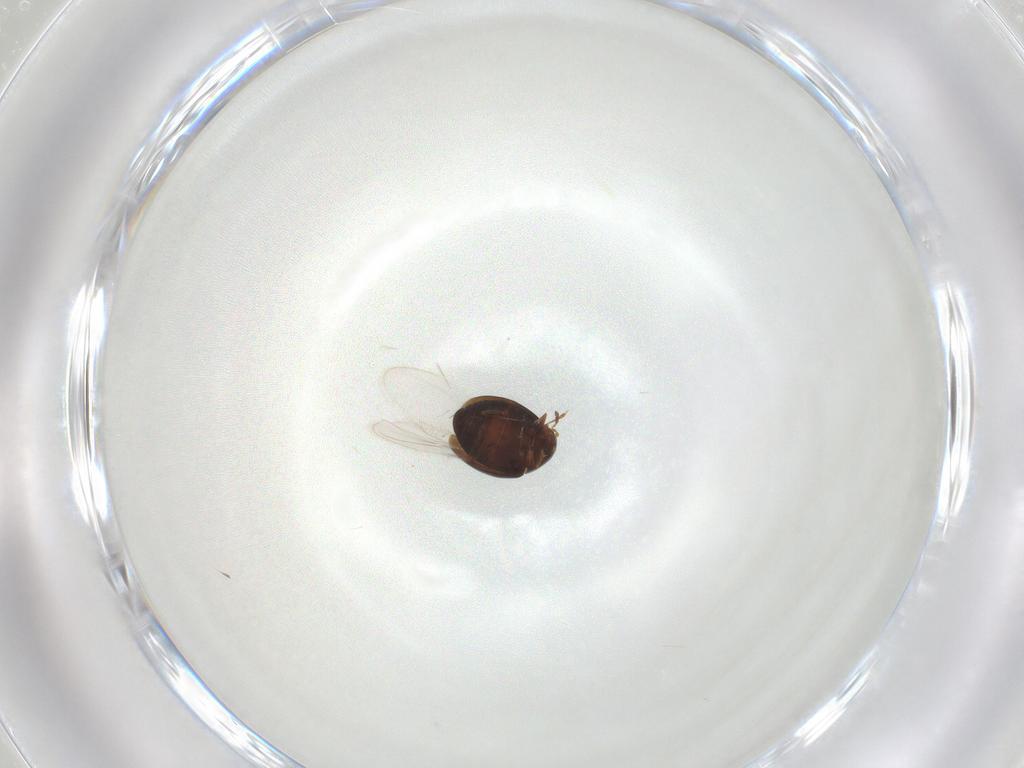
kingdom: Animalia
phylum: Arthropoda
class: Insecta
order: Coleoptera
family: Corylophidae
